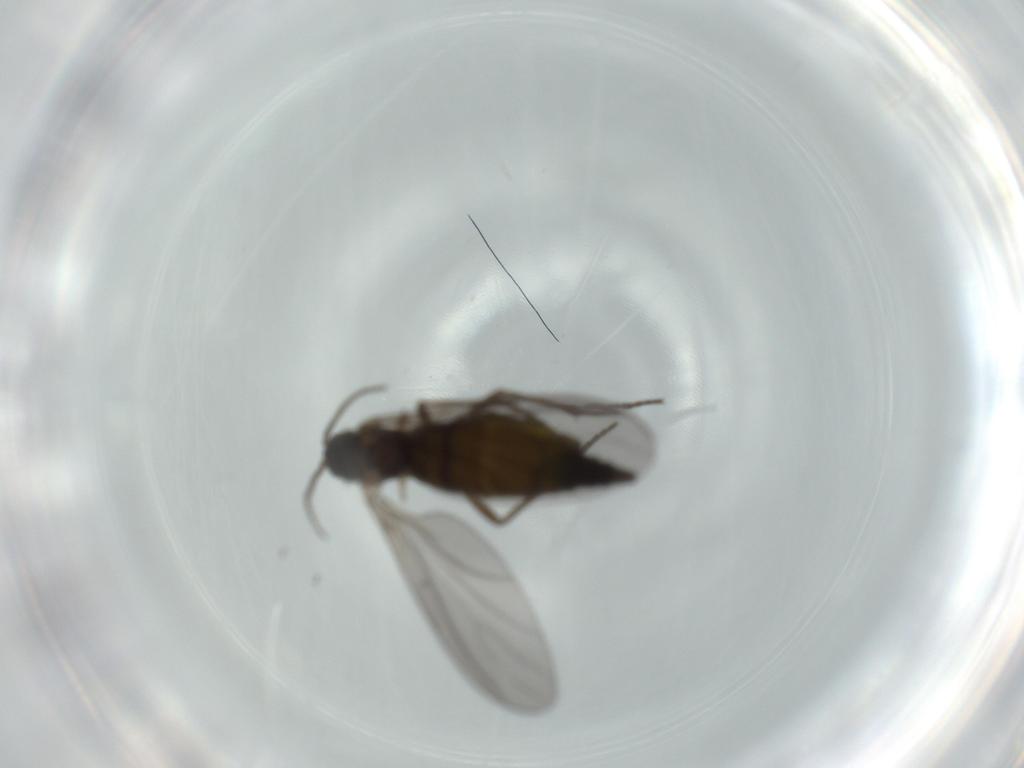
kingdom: Animalia
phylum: Arthropoda
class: Insecta
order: Diptera
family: Sciaridae
